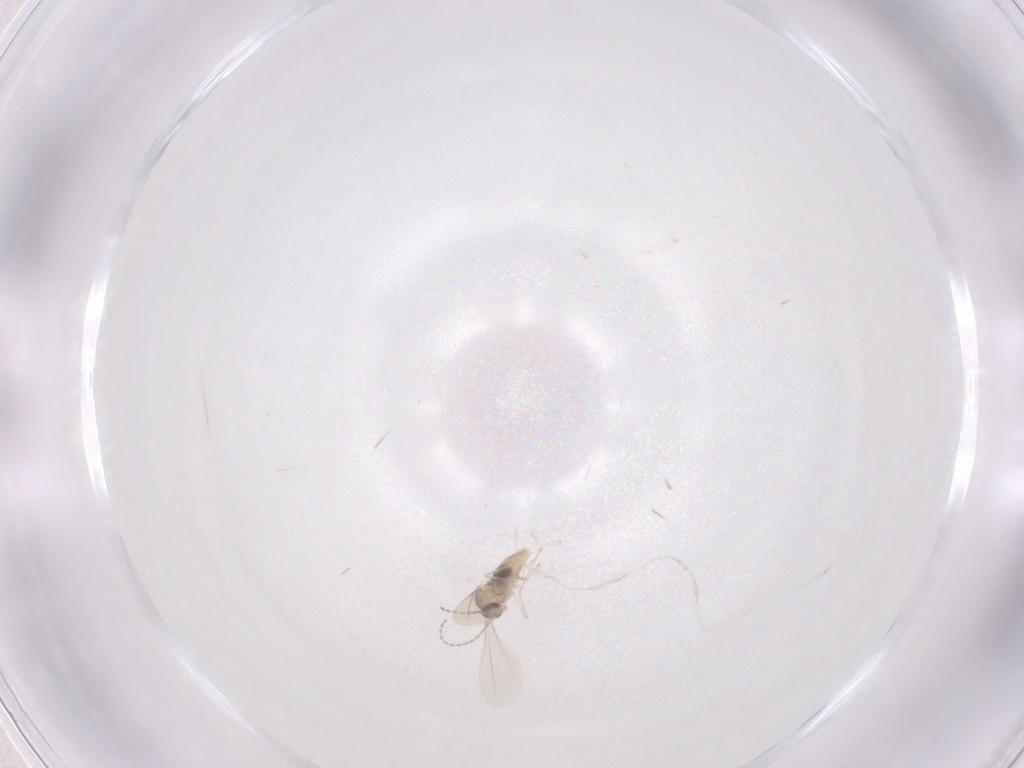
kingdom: Animalia
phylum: Arthropoda
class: Insecta
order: Diptera
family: Cecidomyiidae
